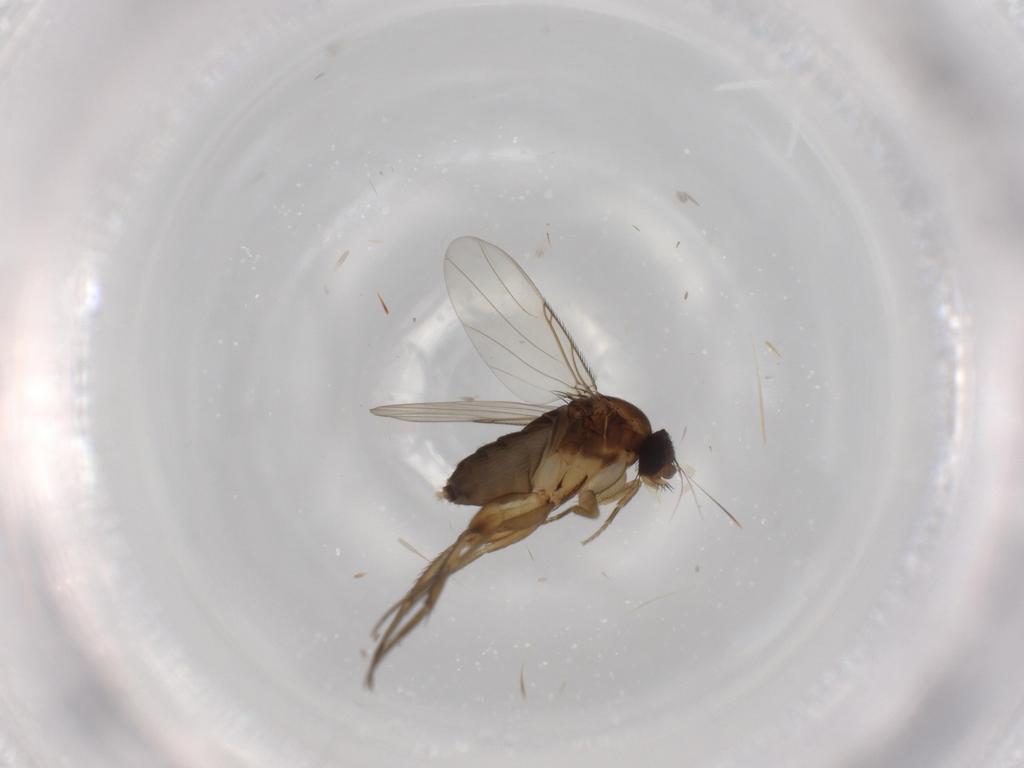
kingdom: Animalia
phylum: Arthropoda
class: Insecta
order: Diptera
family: Phoridae
